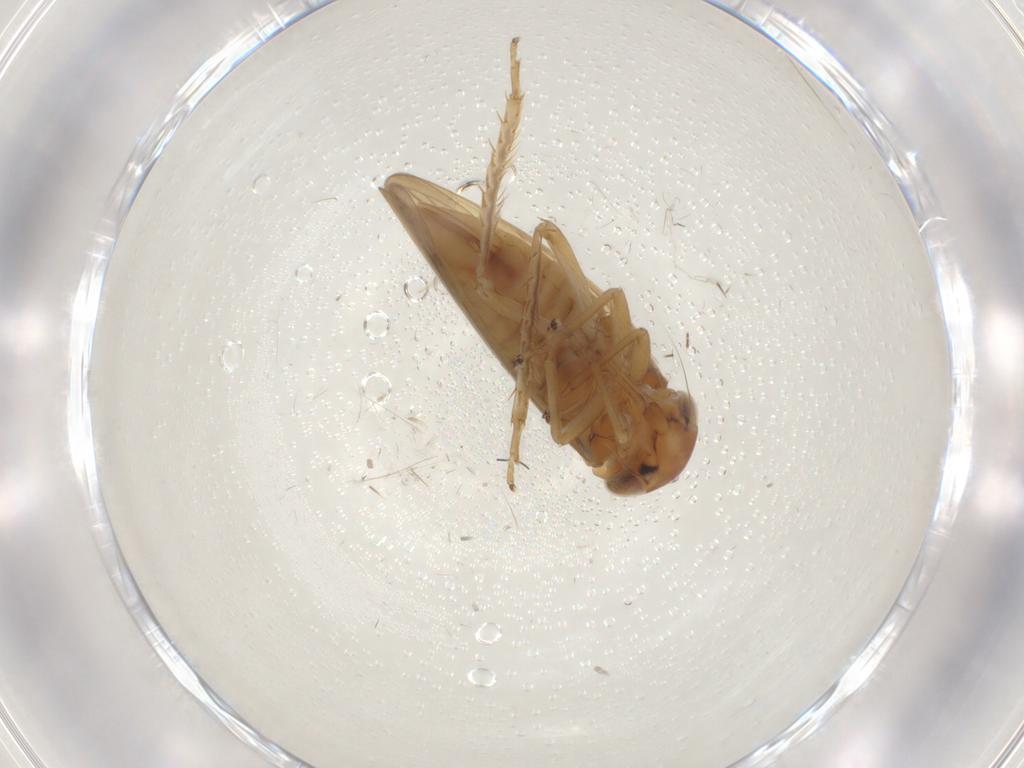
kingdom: Animalia
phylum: Arthropoda
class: Insecta
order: Hemiptera
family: Cicadellidae
